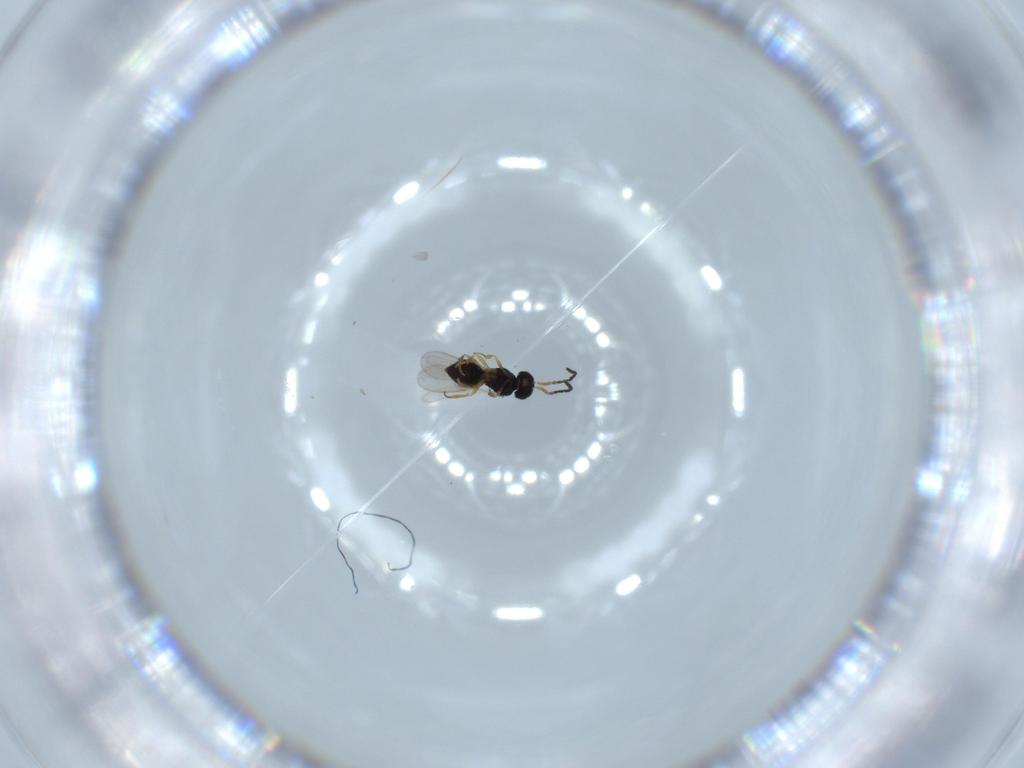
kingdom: Animalia
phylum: Arthropoda
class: Insecta
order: Hymenoptera
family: Scelionidae
